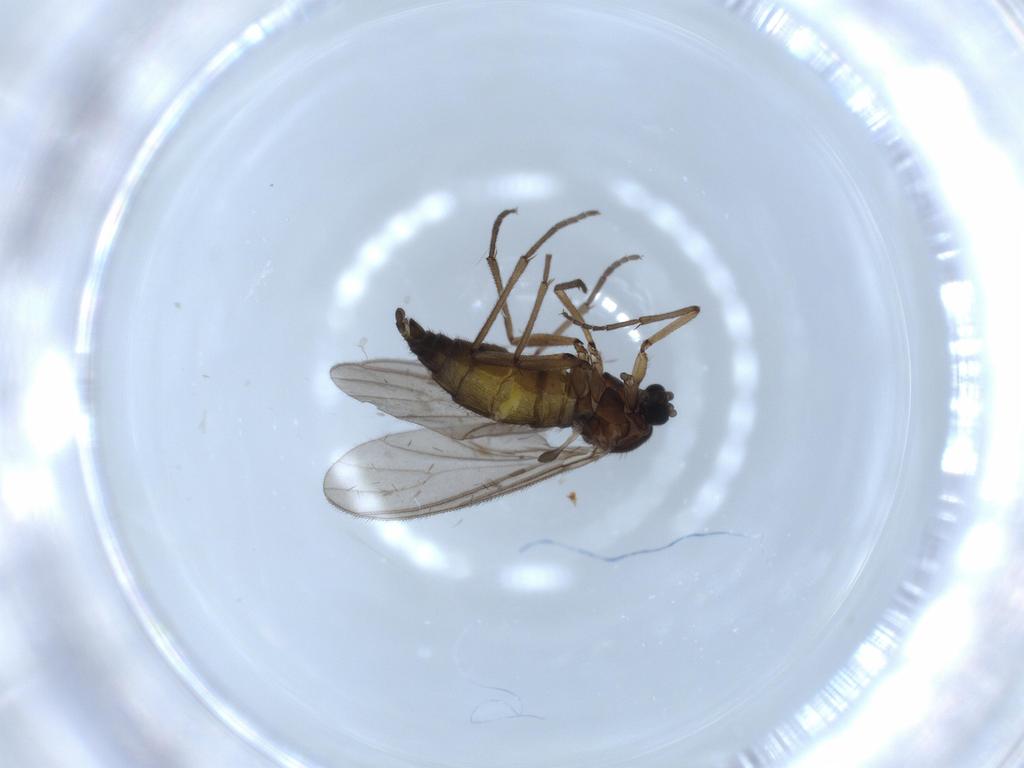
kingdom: Animalia
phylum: Arthropoda
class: Insecta
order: Diptera
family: Sciaridae
